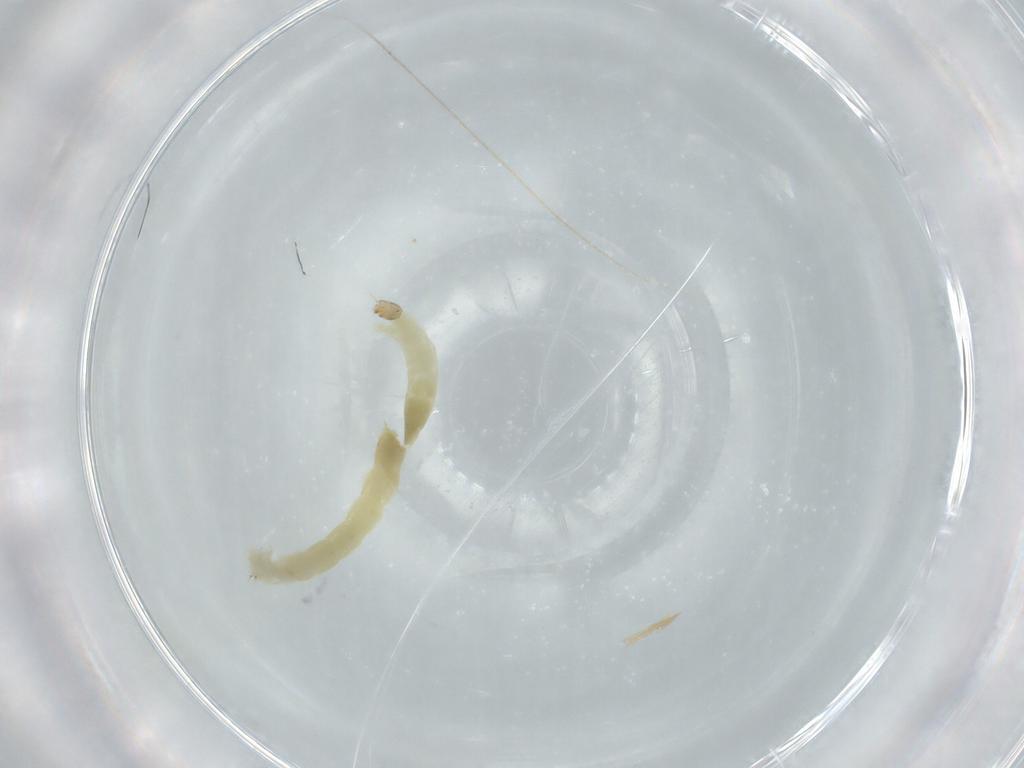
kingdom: Animalia
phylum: Arthropoda
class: Insecta
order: Diptera
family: Chironomidae
